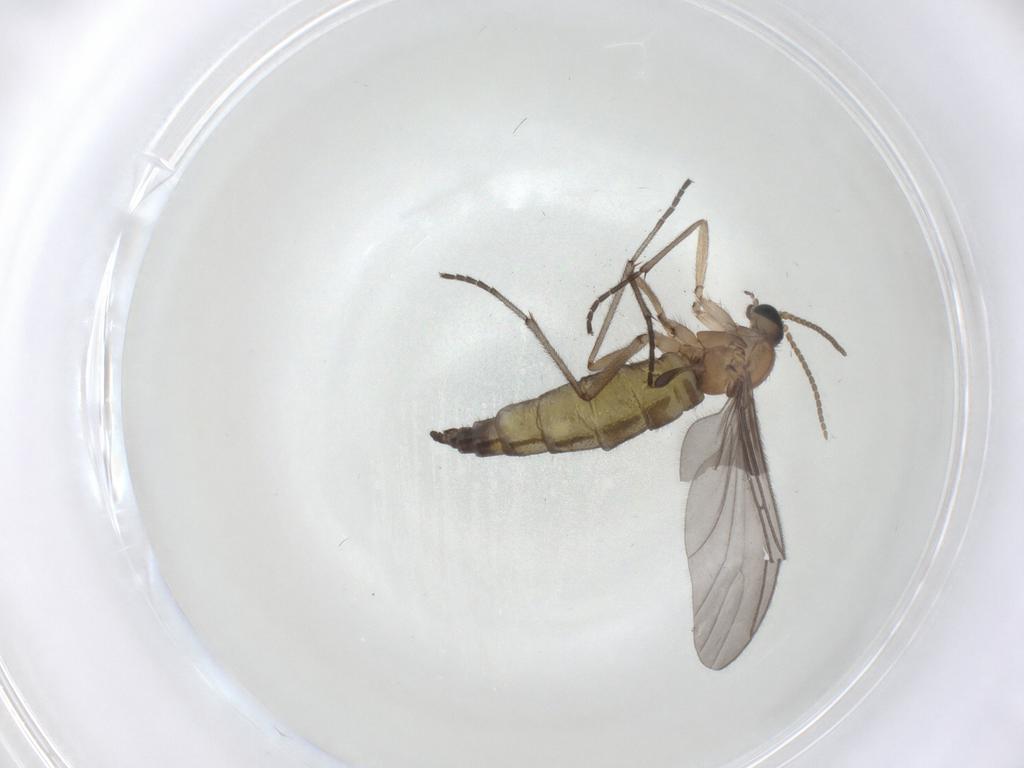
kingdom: Animalia
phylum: Arthropoda
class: Insecta
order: Diptera
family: Sciaridae
